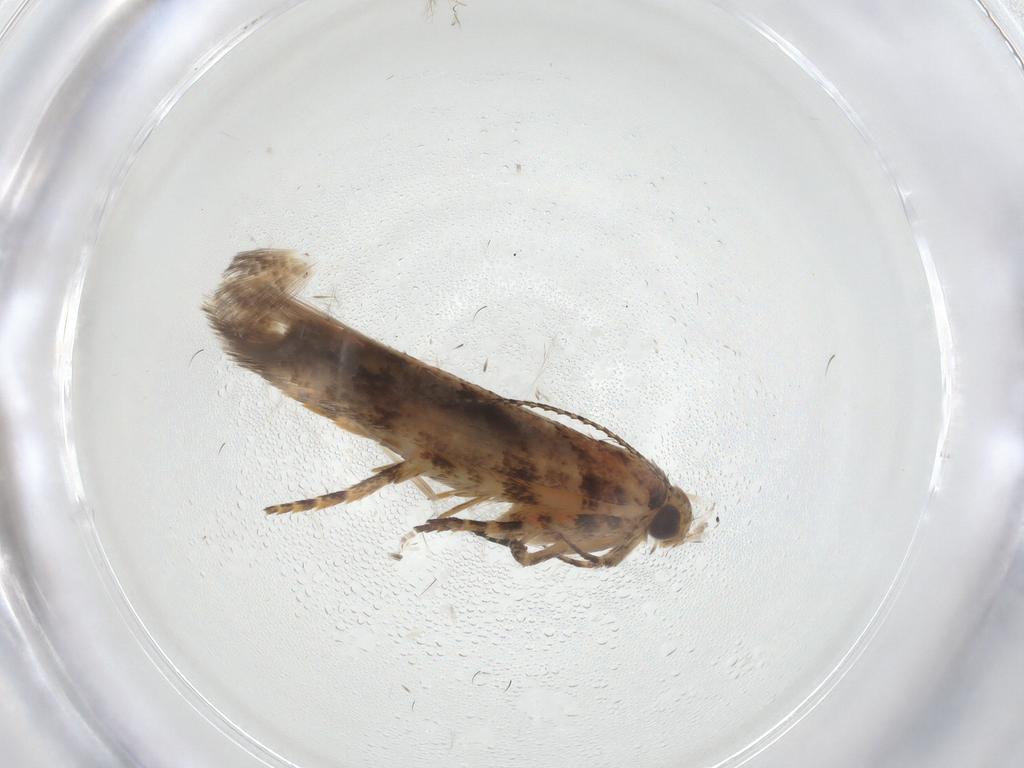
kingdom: Animalia
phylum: Arthropoda
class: Insecta
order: Lepidoptera
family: Gelechiidae
